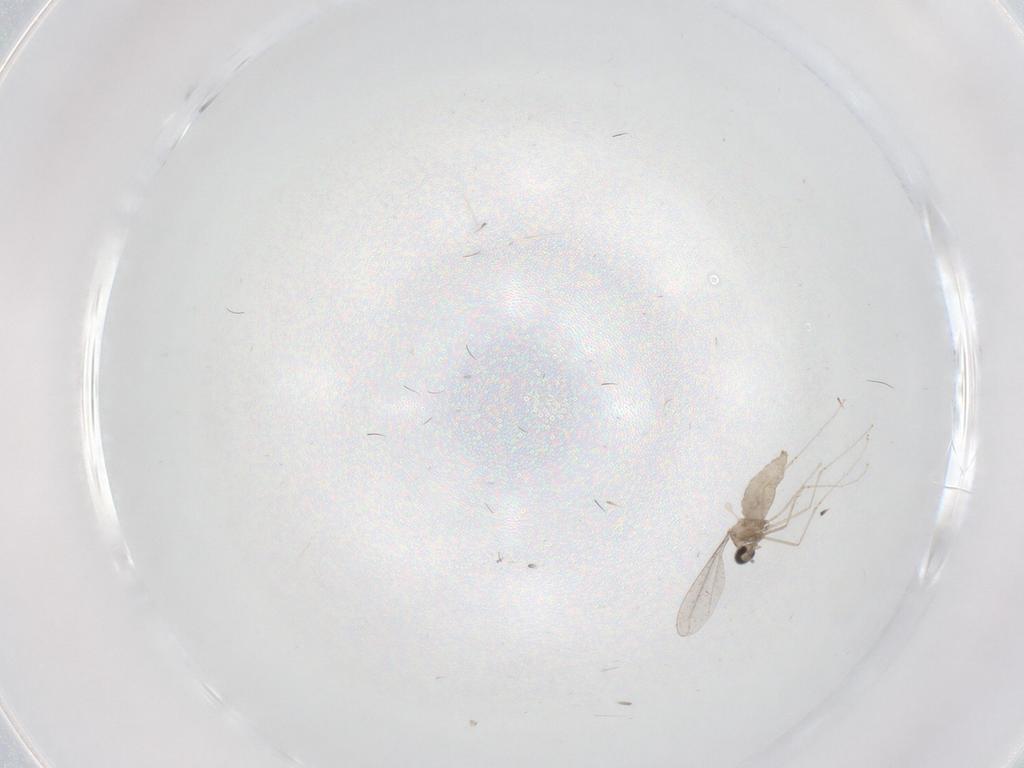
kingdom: Animalia
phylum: Arthropoda
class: Insecta
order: Diptera
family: Cecidomyiidae
